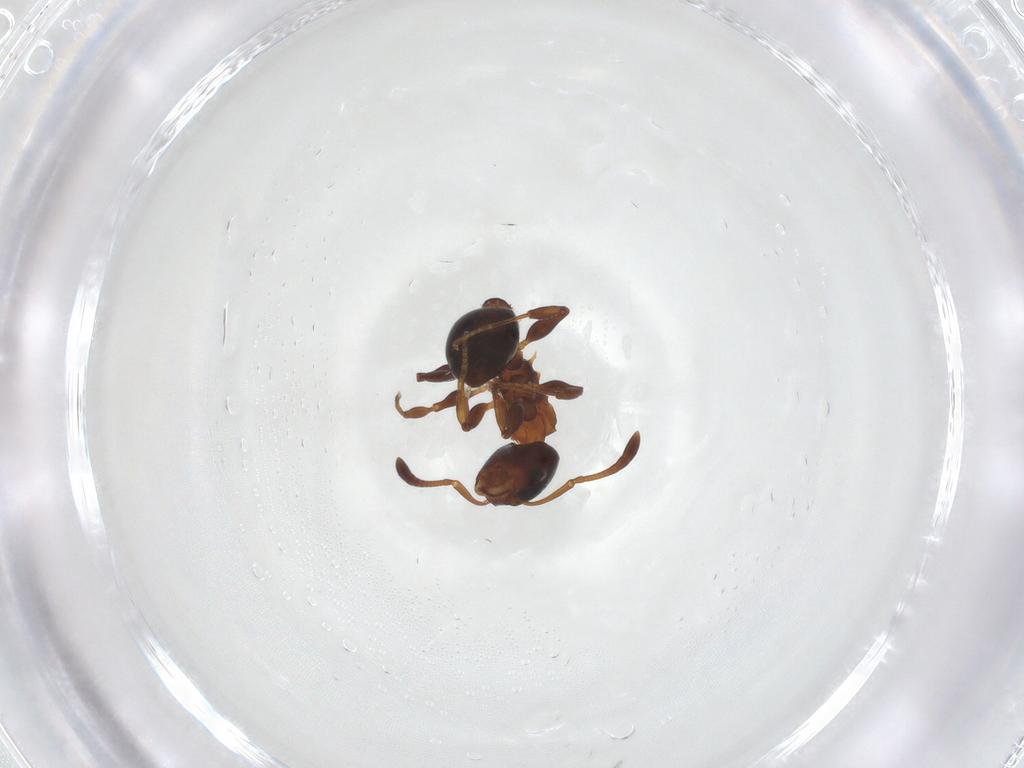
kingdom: Animalia
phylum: Arthropoda
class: Insecta
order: Hymenoptera
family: Formicidae
